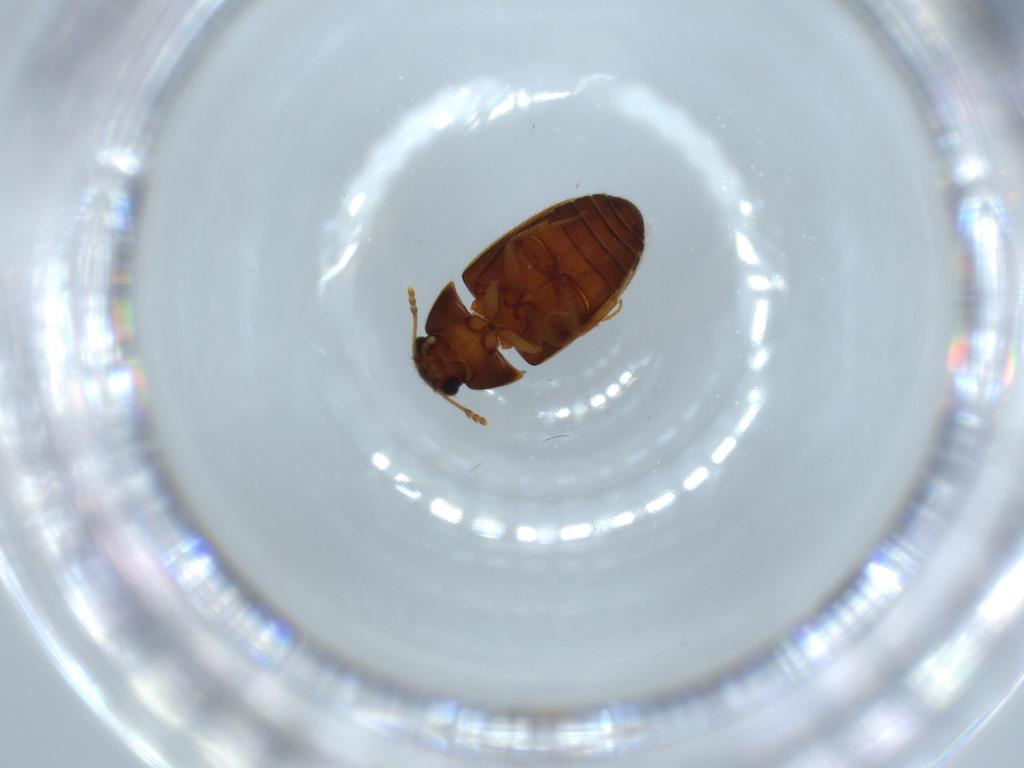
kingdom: Animalia
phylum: Arthropoda
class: Insecta
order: Coleoptera
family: Mycetophagidae
